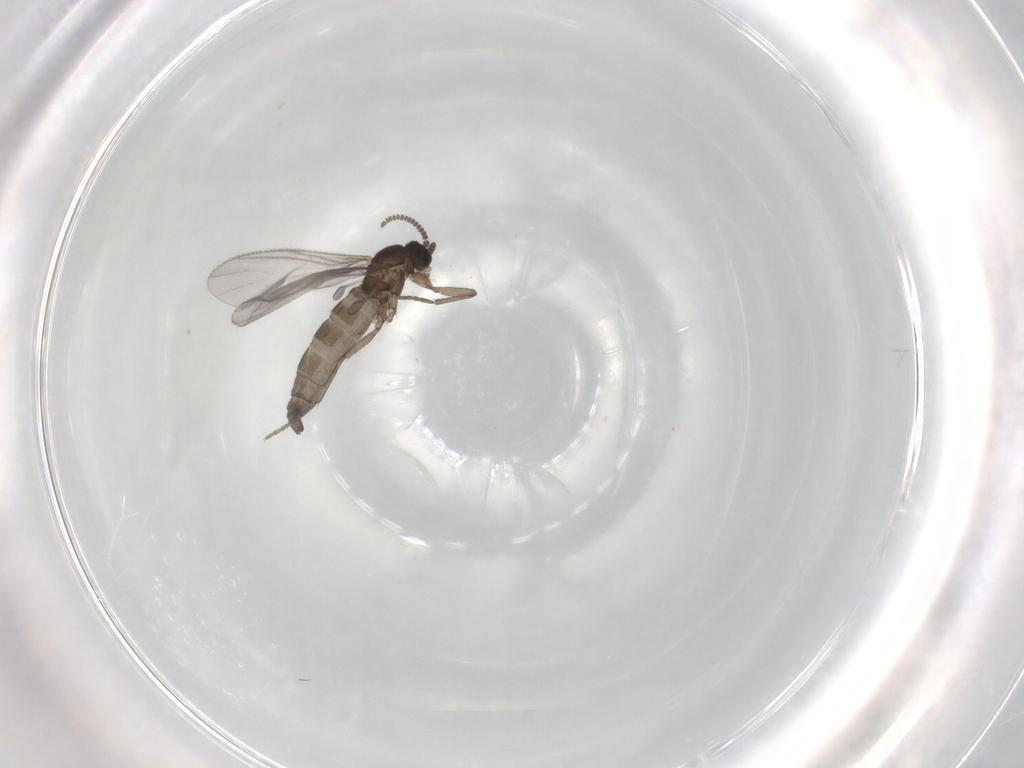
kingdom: Animalia
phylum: Arthropoda
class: Insecta
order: Diptera
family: Sciaridae
